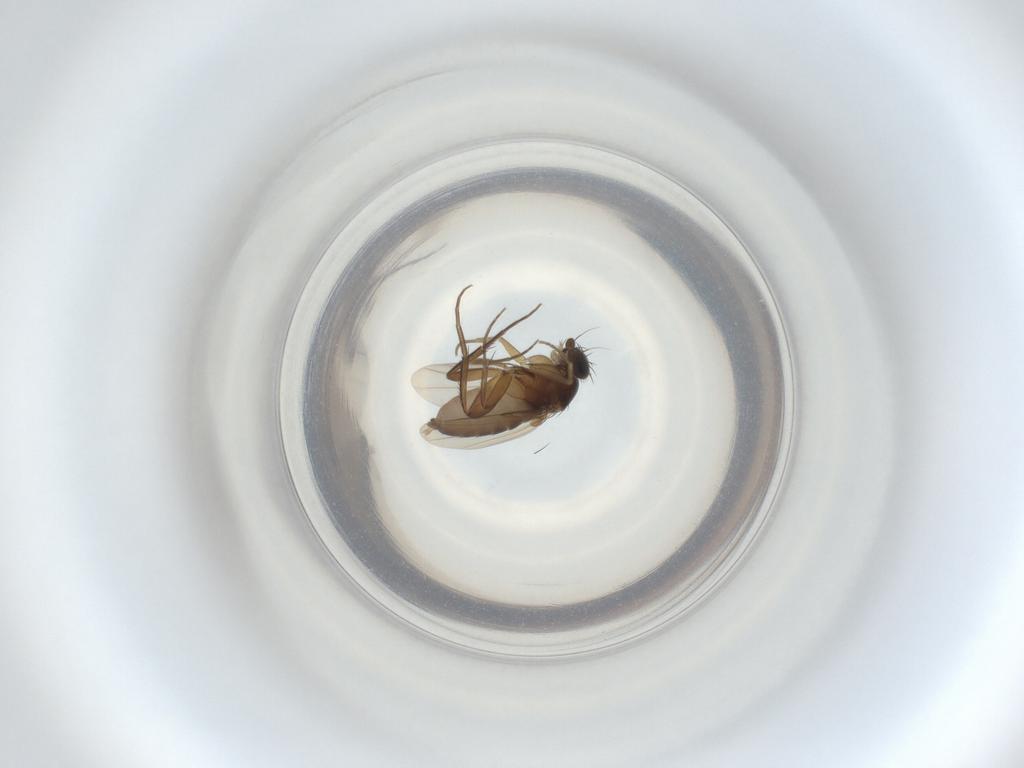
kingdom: Animalia
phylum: Arthropoda
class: Insecta
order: Diptera
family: Phoridae
